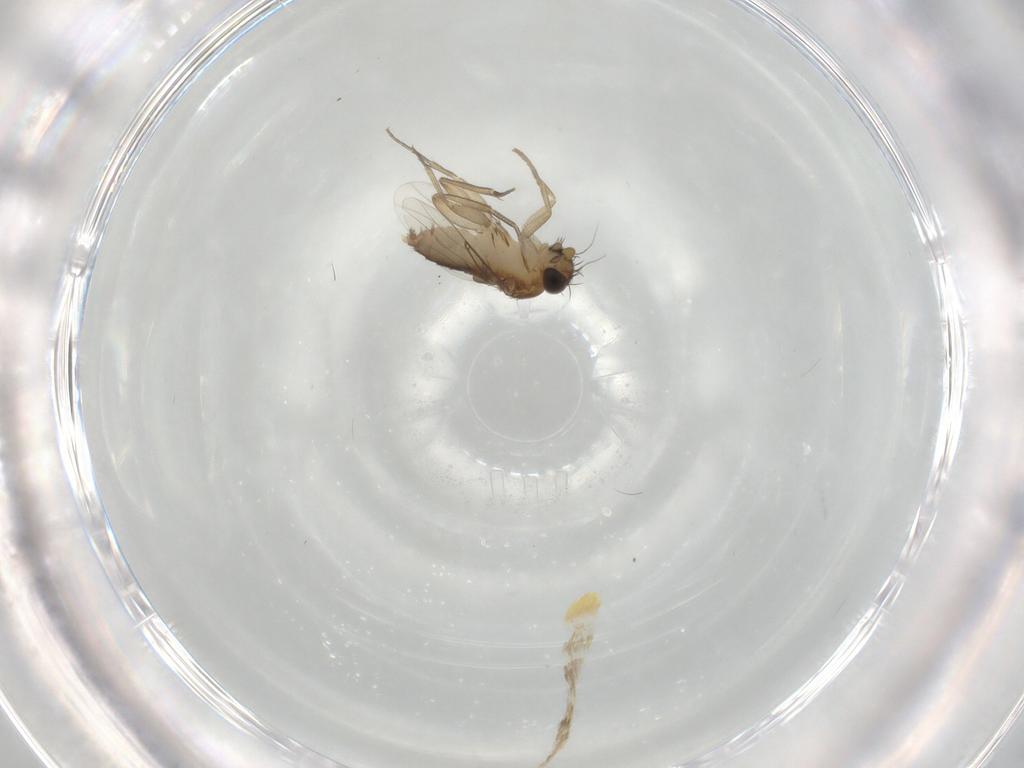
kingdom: Animalia
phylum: Arthropoda
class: Insecta
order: Diptera
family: Phoridae
